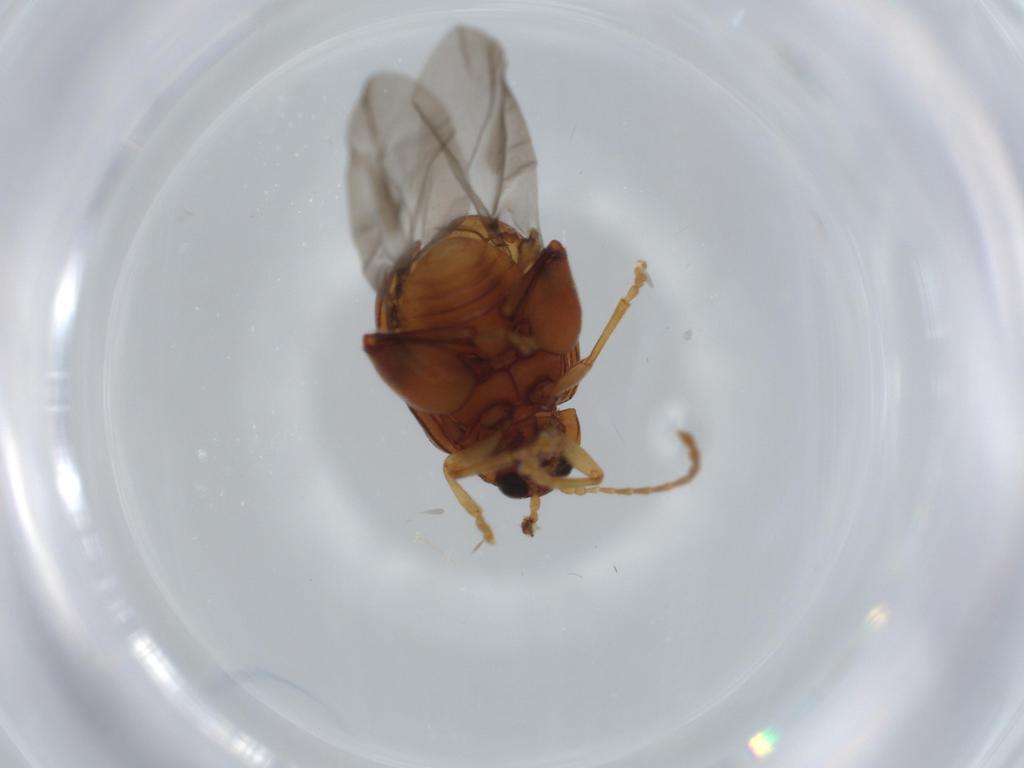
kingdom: Animalia
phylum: Arthropoda
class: Insecta
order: Coleoptera
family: Chrysomelidae
